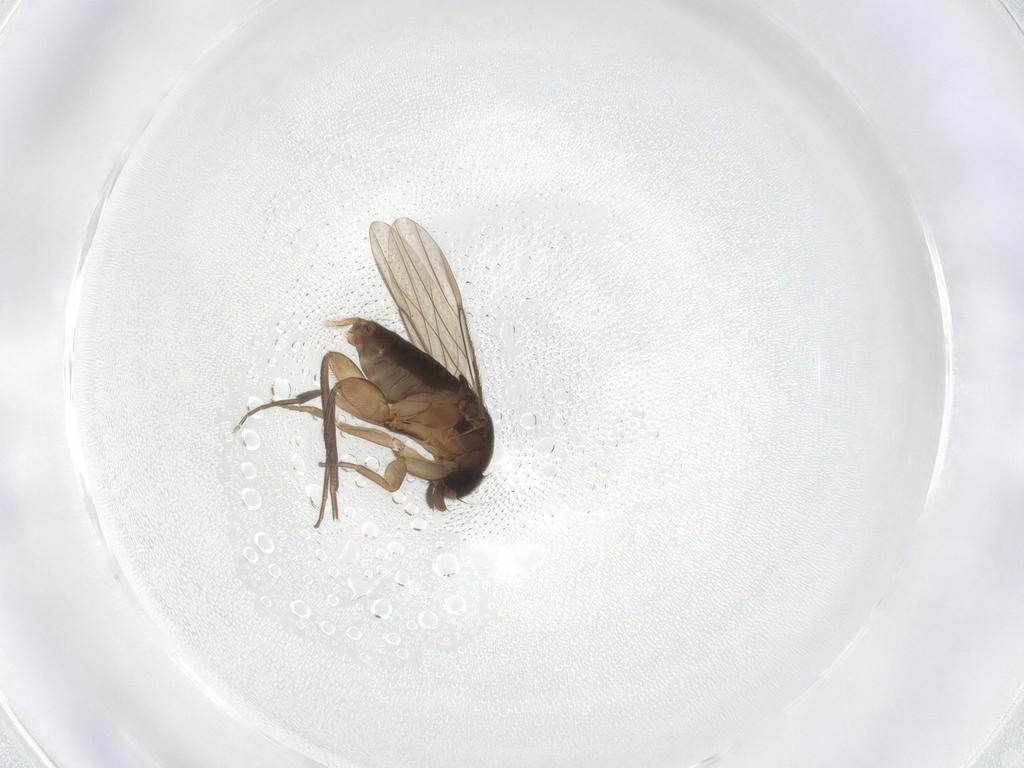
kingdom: Animalia
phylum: Arthropoda
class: Insecta
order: Diptera
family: Phoridae
